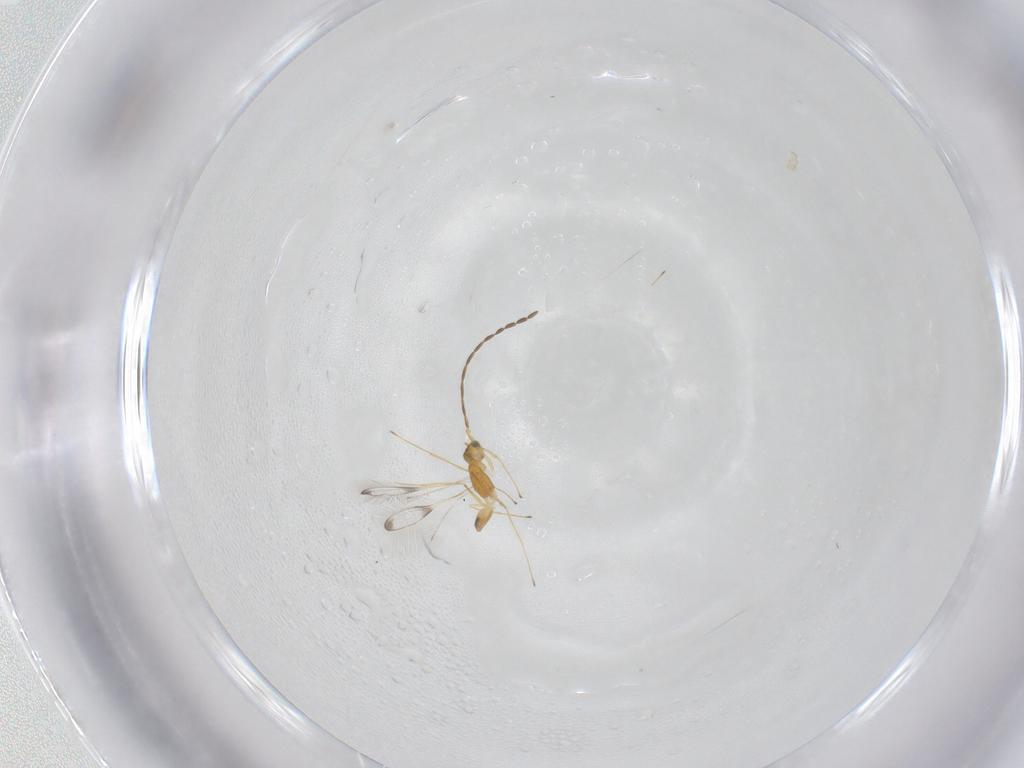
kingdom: Animalia
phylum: Arthropoda
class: Insecta
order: Hymenoptera
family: Mymaridae
